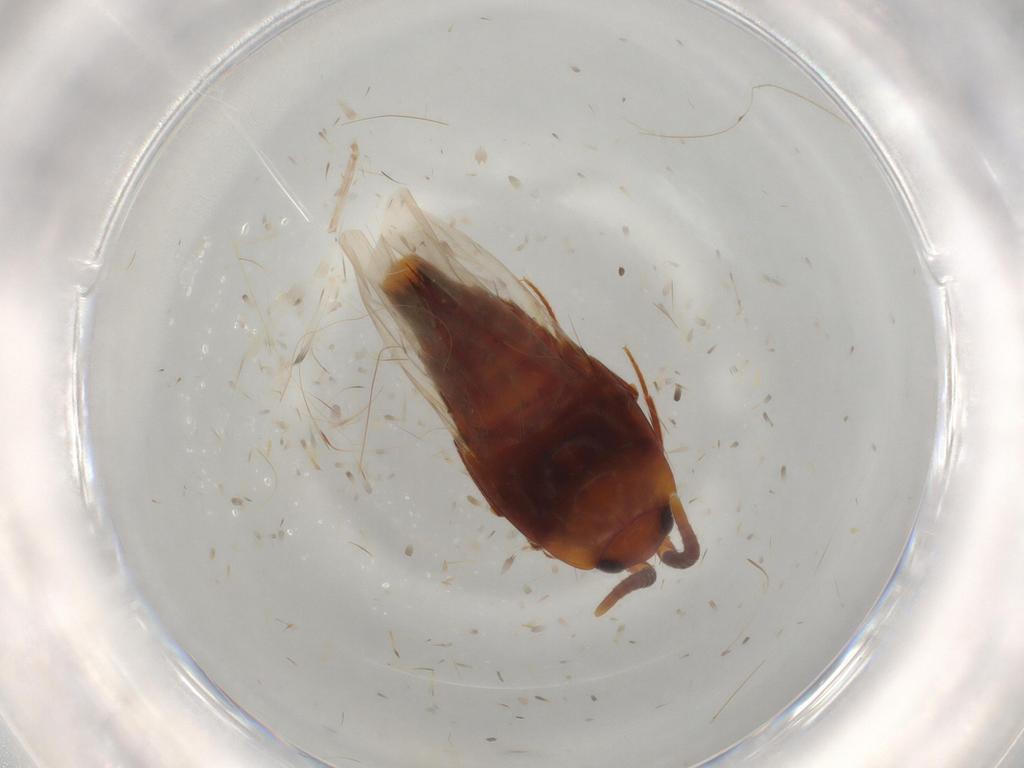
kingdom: Animalia
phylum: Arthropoda
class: Insecta
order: Coleoptera
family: Staphylinidae
